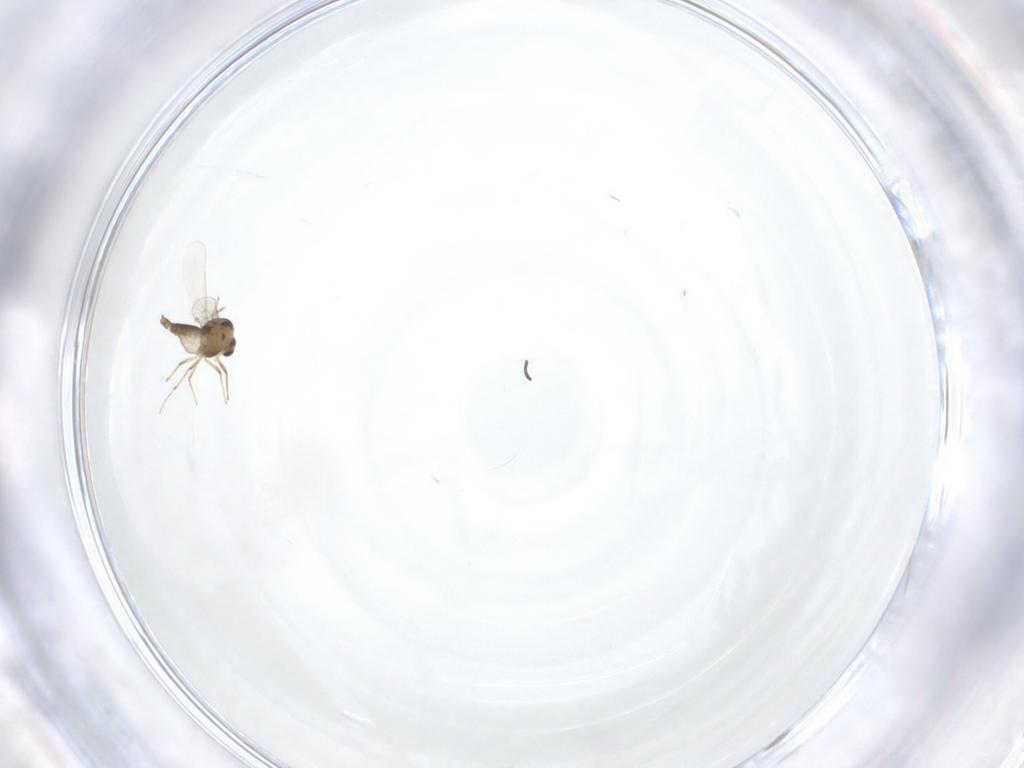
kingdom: Animalia
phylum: Arthropoda
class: Insecta
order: Diptera
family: Chironomidae
